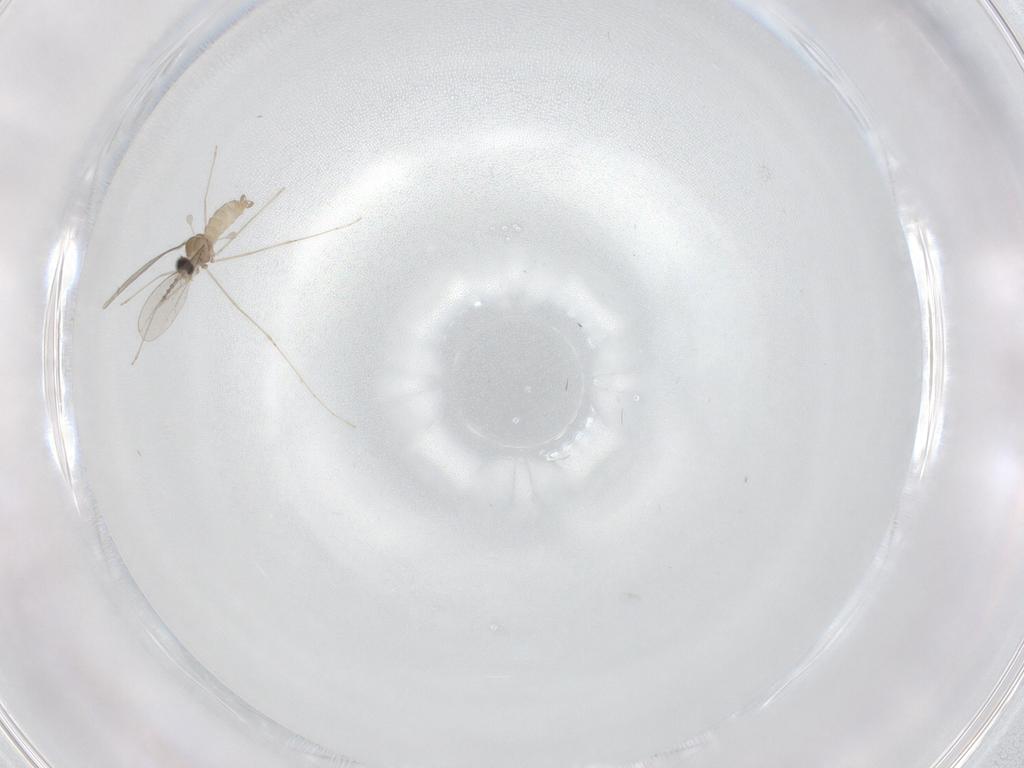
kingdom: Animalia
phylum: Arthropoda
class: Insecta
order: Diptera
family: Cecidomyiidae
